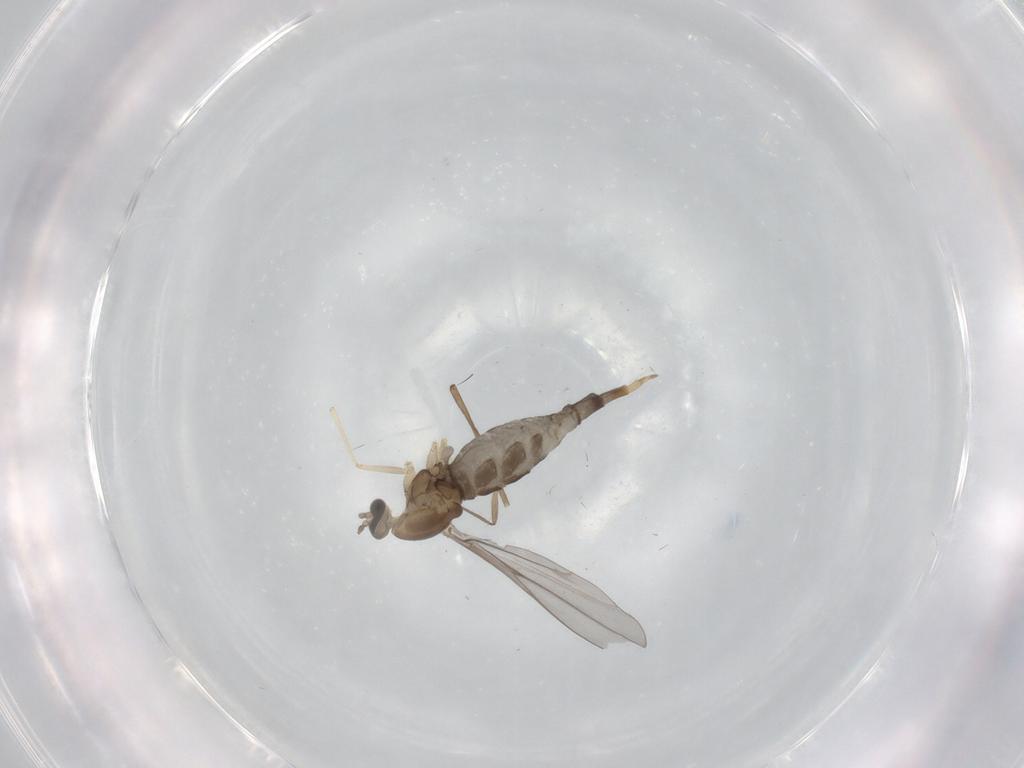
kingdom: Animalia
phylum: Arthropoda
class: Insecta
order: Diptera
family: Cecidomyiidae
